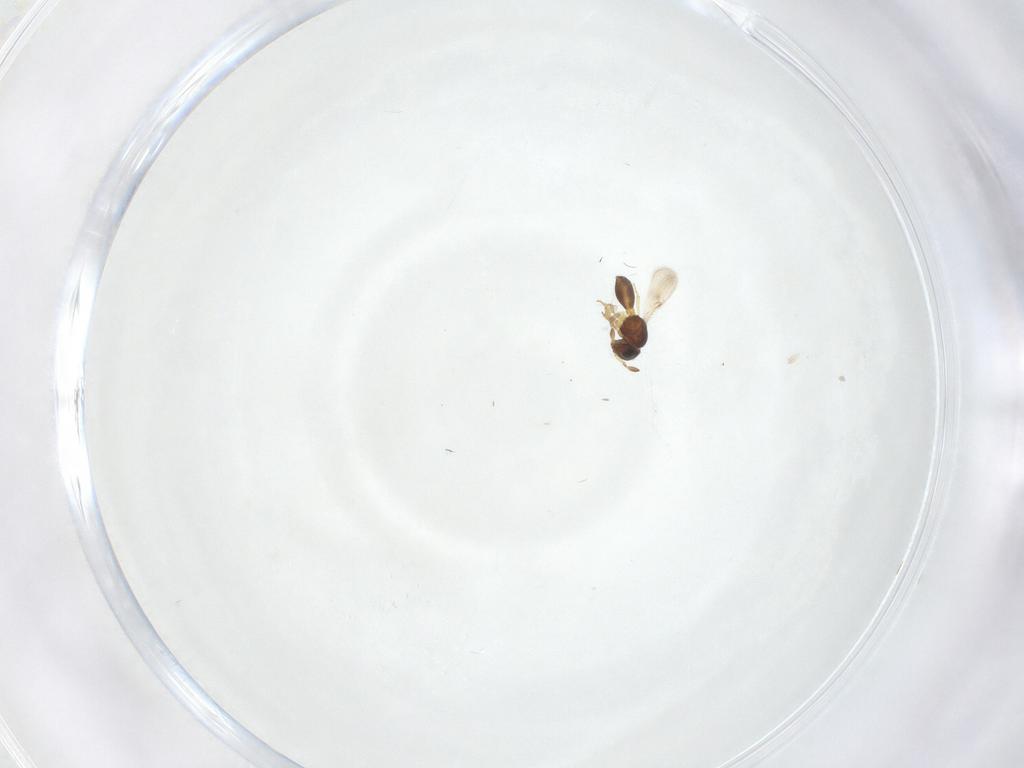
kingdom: Animalia
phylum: Arthropoda
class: Insecta
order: Hymenoptera
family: Scelionidae
